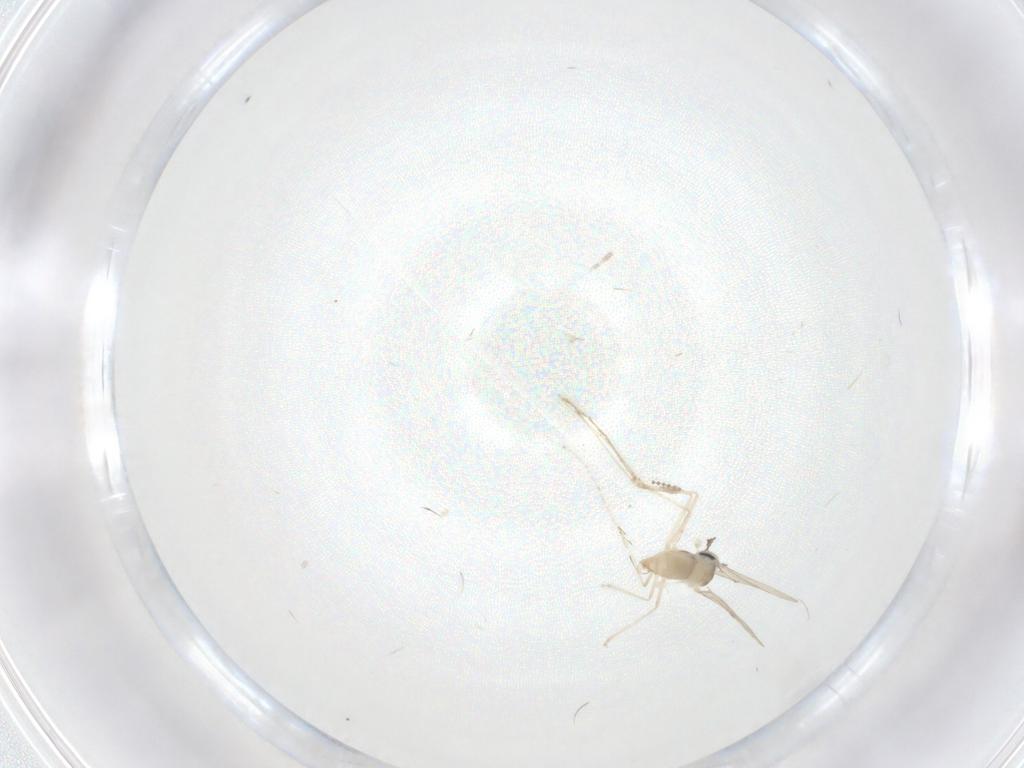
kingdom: Animalia
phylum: Arthropoda
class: Insecta
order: Diptera
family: Cecidomyiidae
